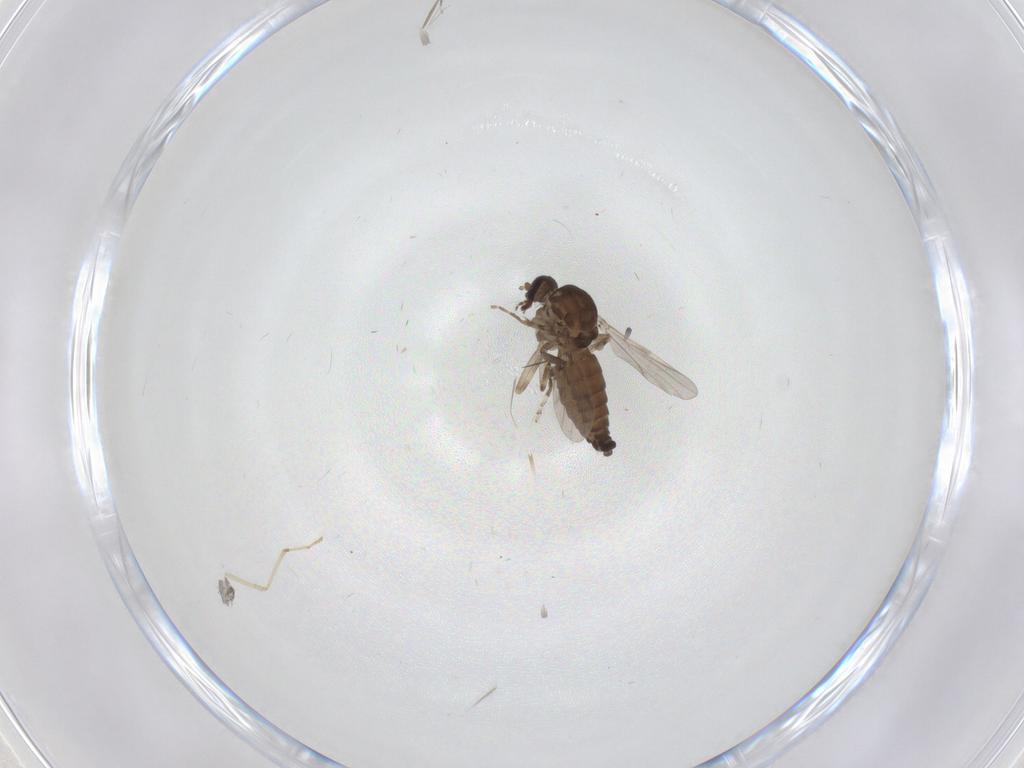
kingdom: Animalia
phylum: Arthropoda
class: Insecta
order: Diptera
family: Ceratopogonidae
